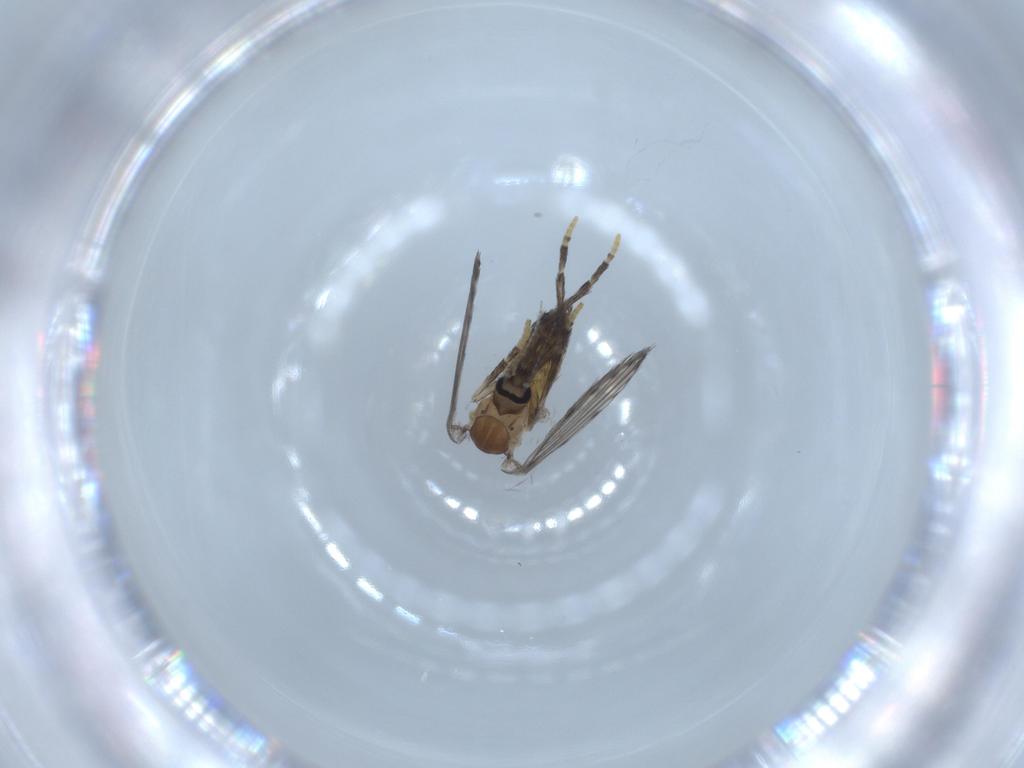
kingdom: Animalia
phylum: Arthropoda
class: Insecta
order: Diptera
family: Psychodidae
